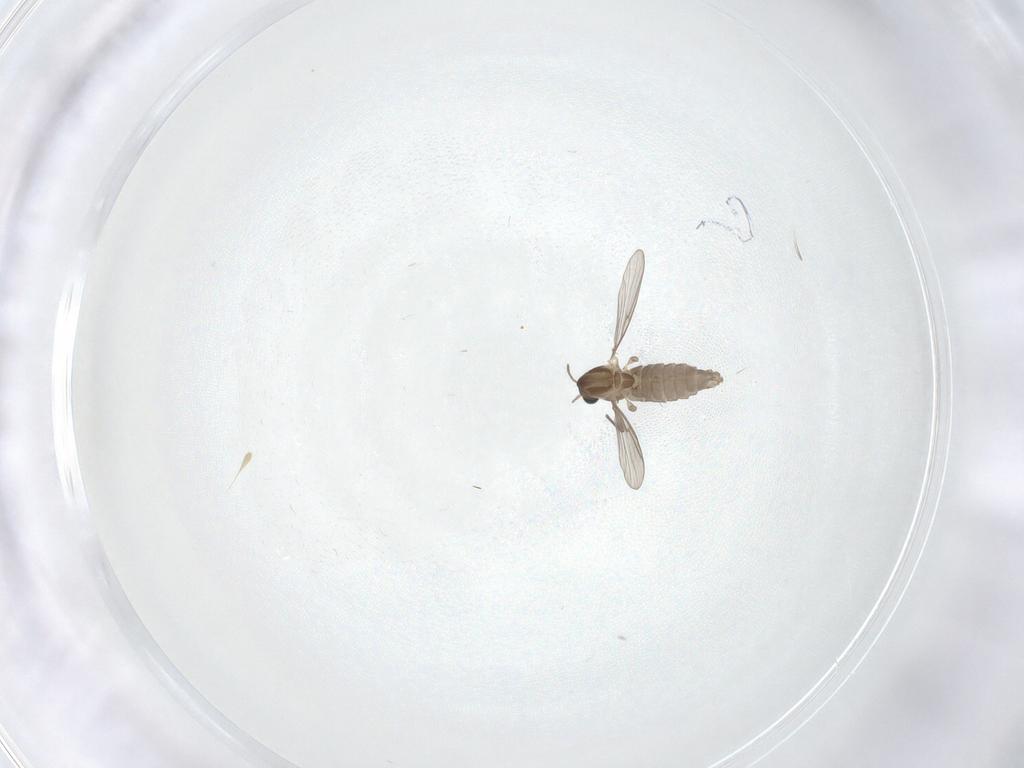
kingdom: Animalia
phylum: Arthropoda
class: Insecta
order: Diptera
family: Chironomidae
